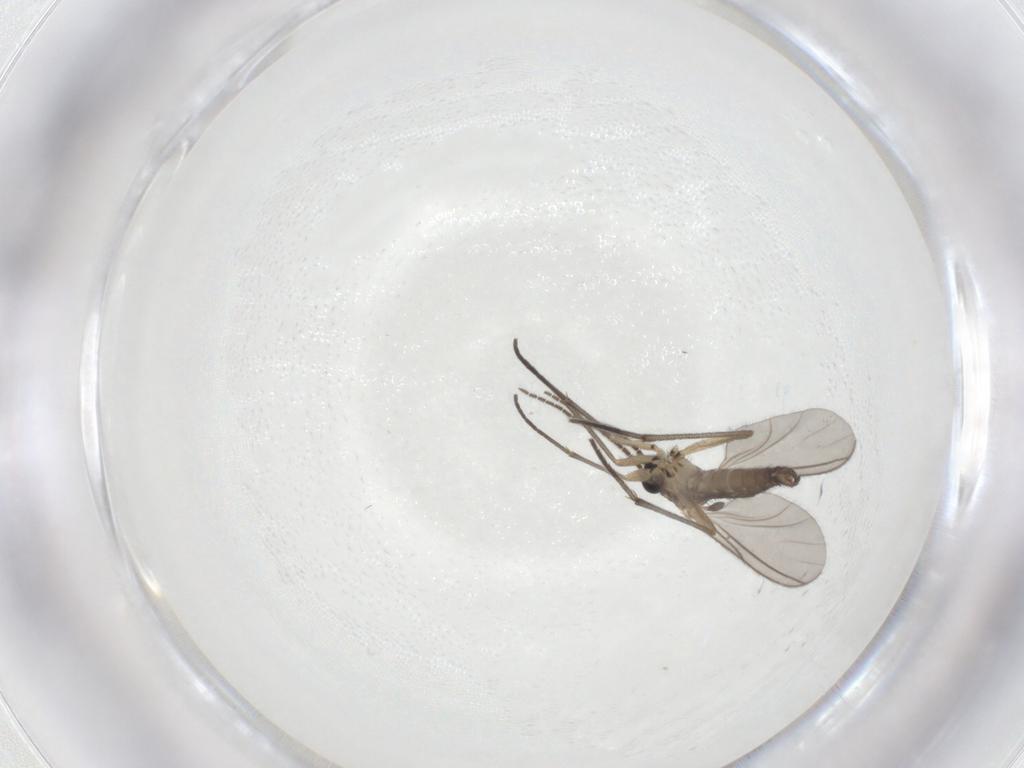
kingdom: Animalia
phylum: Arthropoda
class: Insecta
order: Diptera
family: Sciaridae
